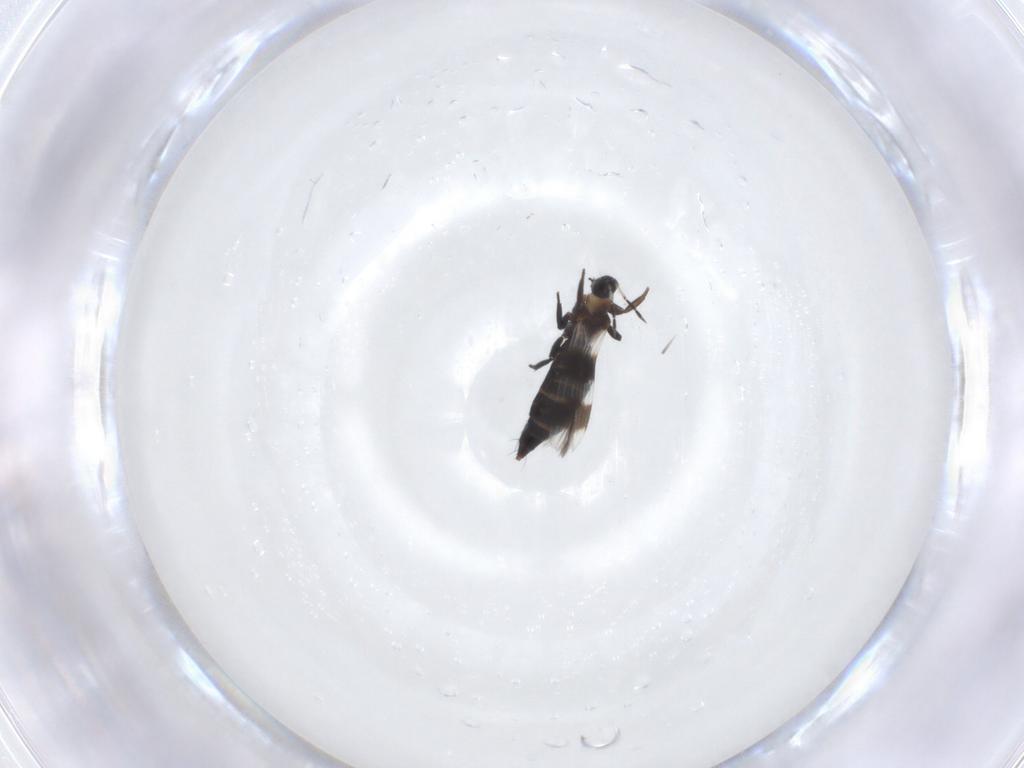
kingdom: Animalia
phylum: Arthropoda
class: Insecta
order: Thysanoptera
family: Aeolothripidae
